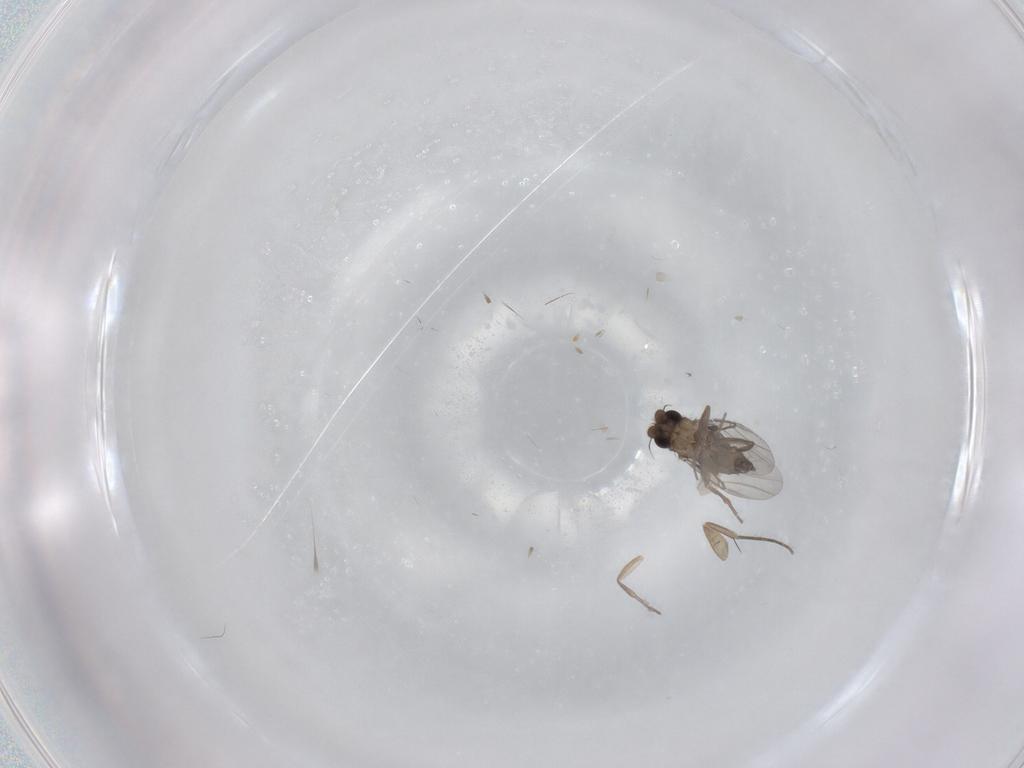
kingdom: Animalia
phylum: Arthropoda
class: Insecta
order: Diptera
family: Phoridae
